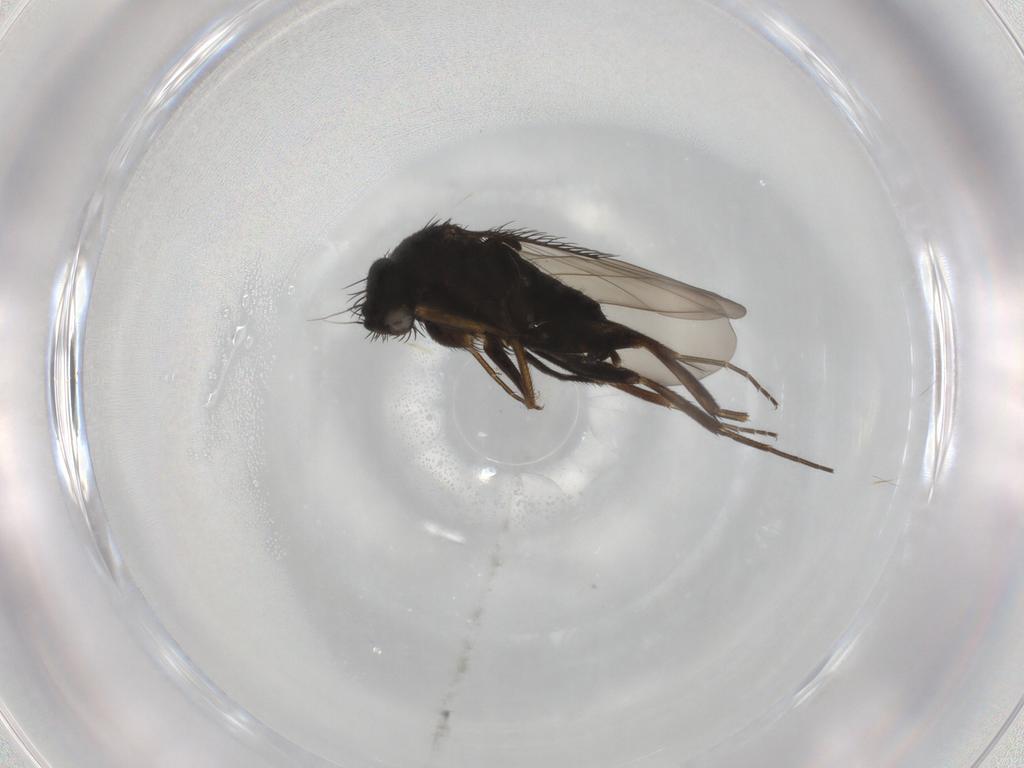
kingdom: Animalia
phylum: Arthropoda
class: Insecta
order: Diptera
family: Phoridae
